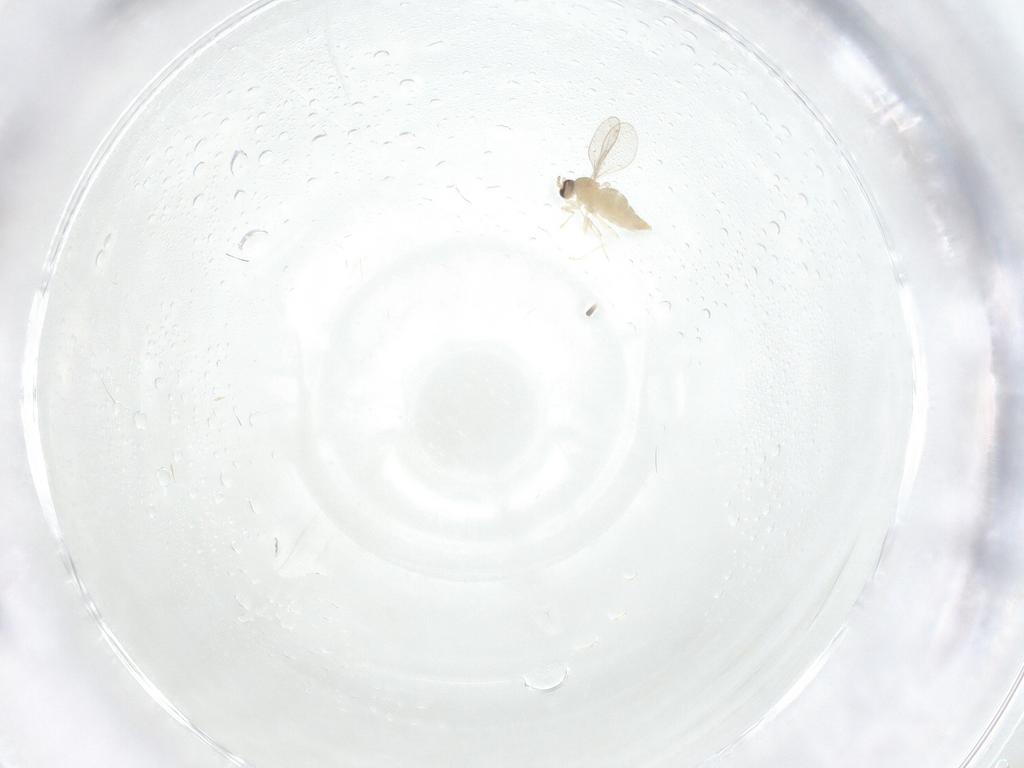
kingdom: Animalia
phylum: Arthropoda
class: Insecta
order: Diptera
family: Cecidomyiidae
